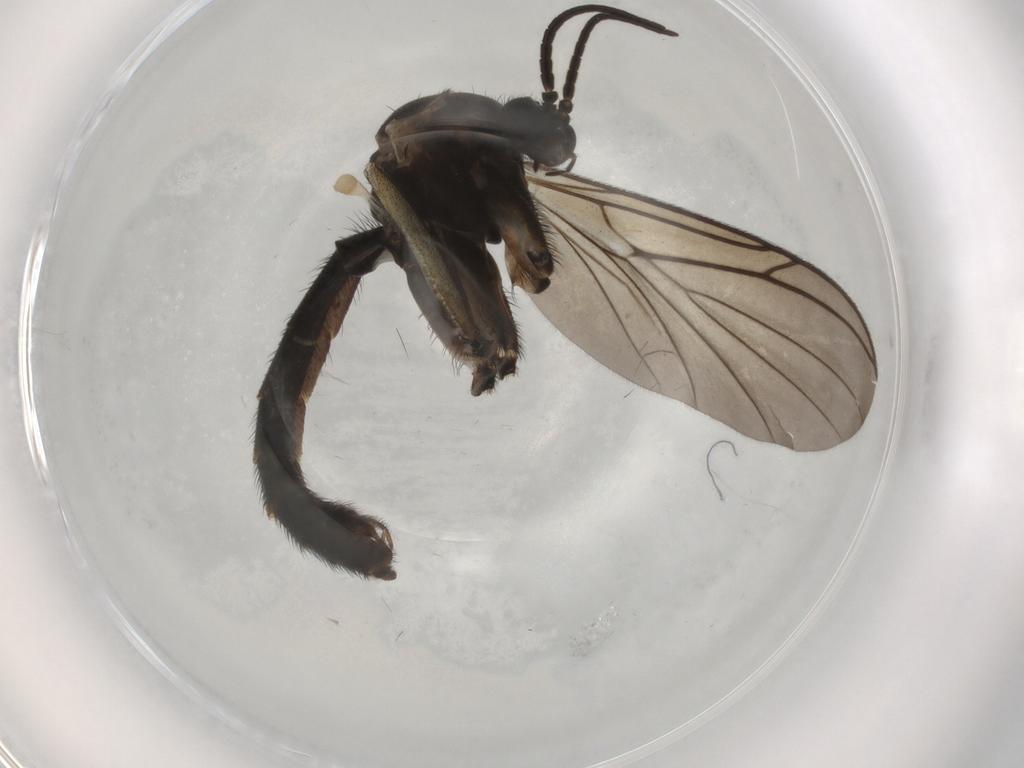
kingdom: Animalia
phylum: Arthropoda
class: Insecta
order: Diptera
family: Keroplatidae
